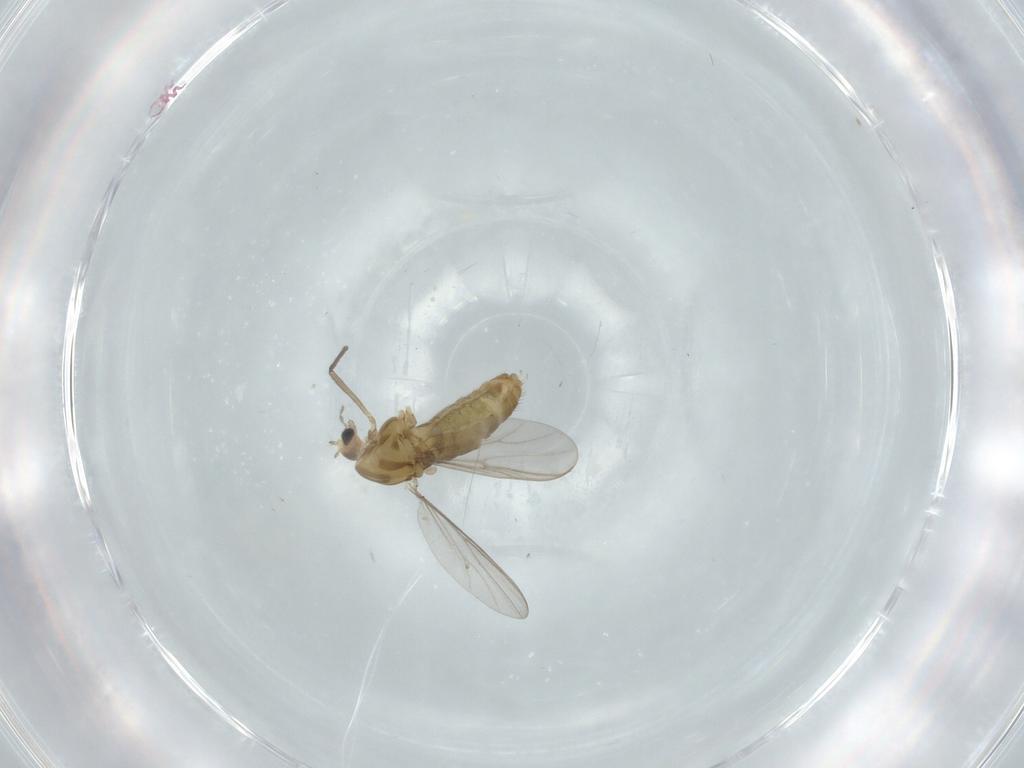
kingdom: Animalia
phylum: Arthropoda
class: Insecta
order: Diptera
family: Chironomidae
